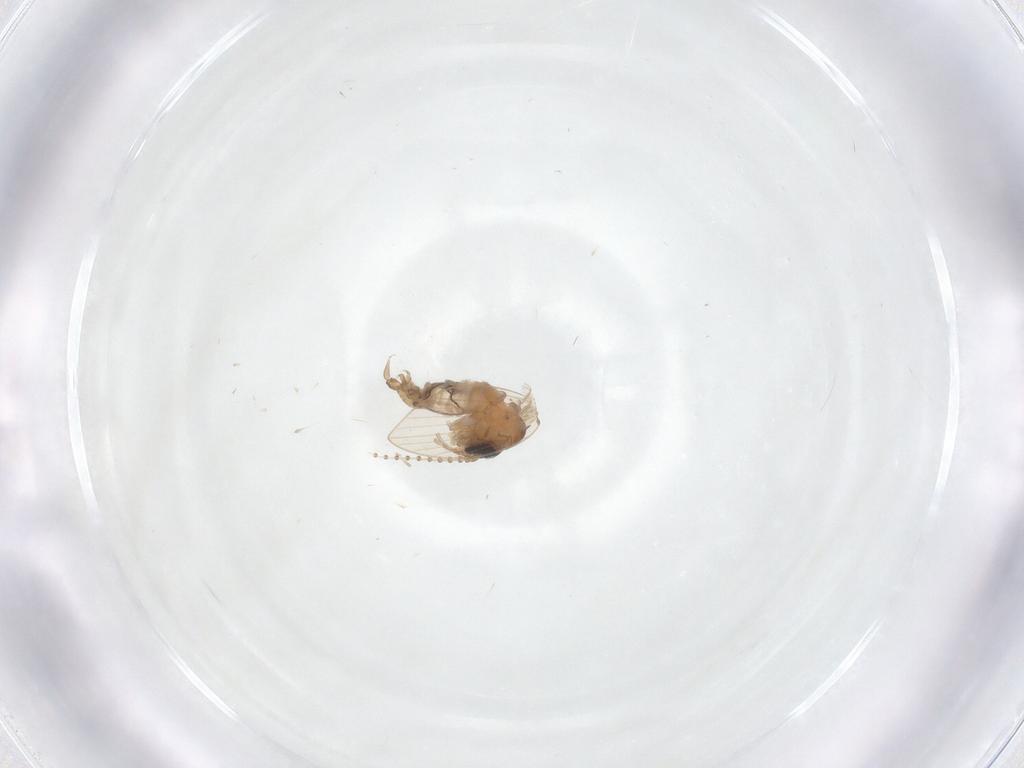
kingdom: Animalia
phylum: Arthropoda
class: Insecta
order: Diptera
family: Psychodidae
